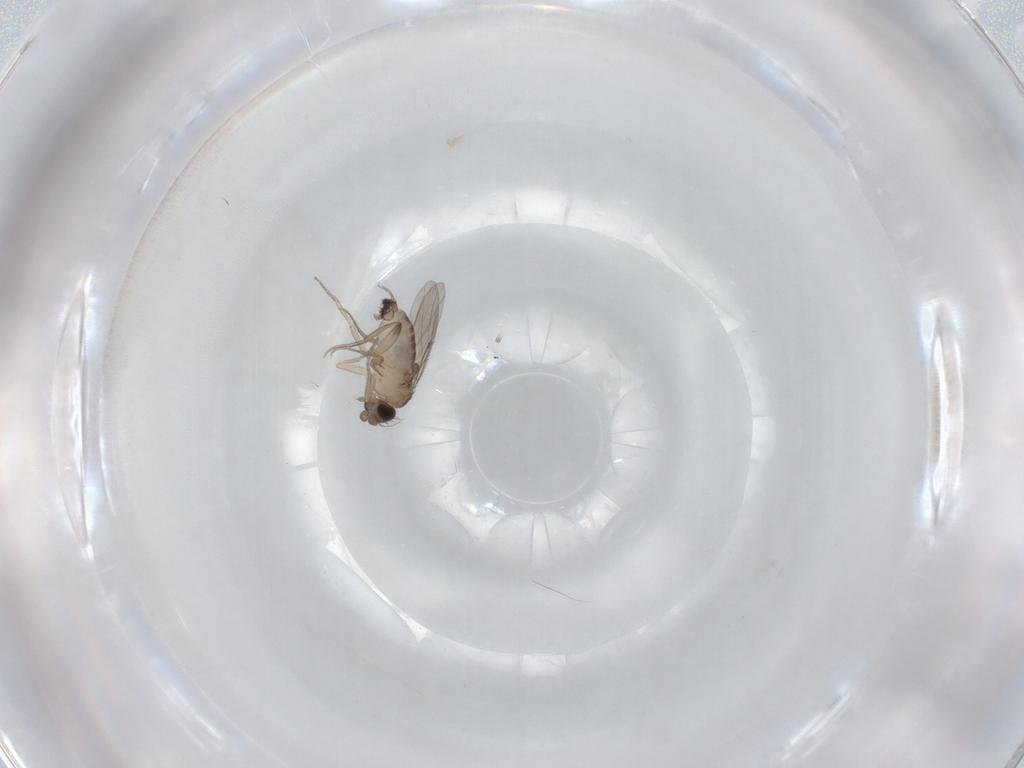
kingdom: Animalia
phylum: Arthropoda
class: Insecta
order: Diptera
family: Phoridae
